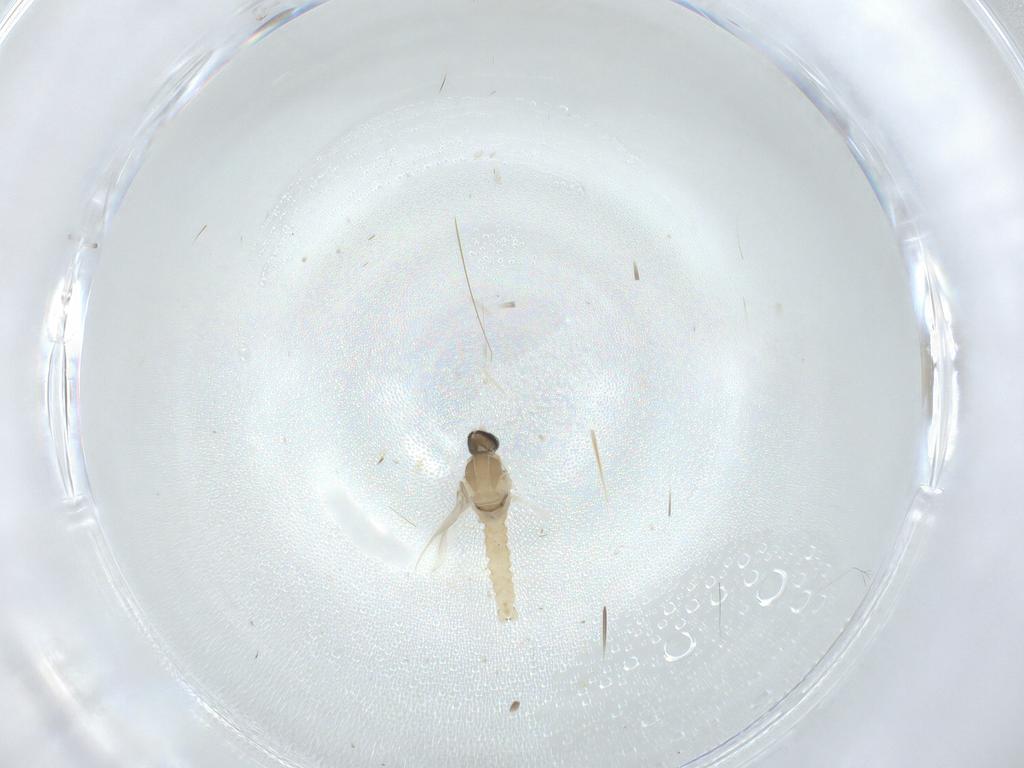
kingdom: Animalia
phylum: Arthropoda
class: Insecta
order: Diptera
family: Cecidomyiidae
